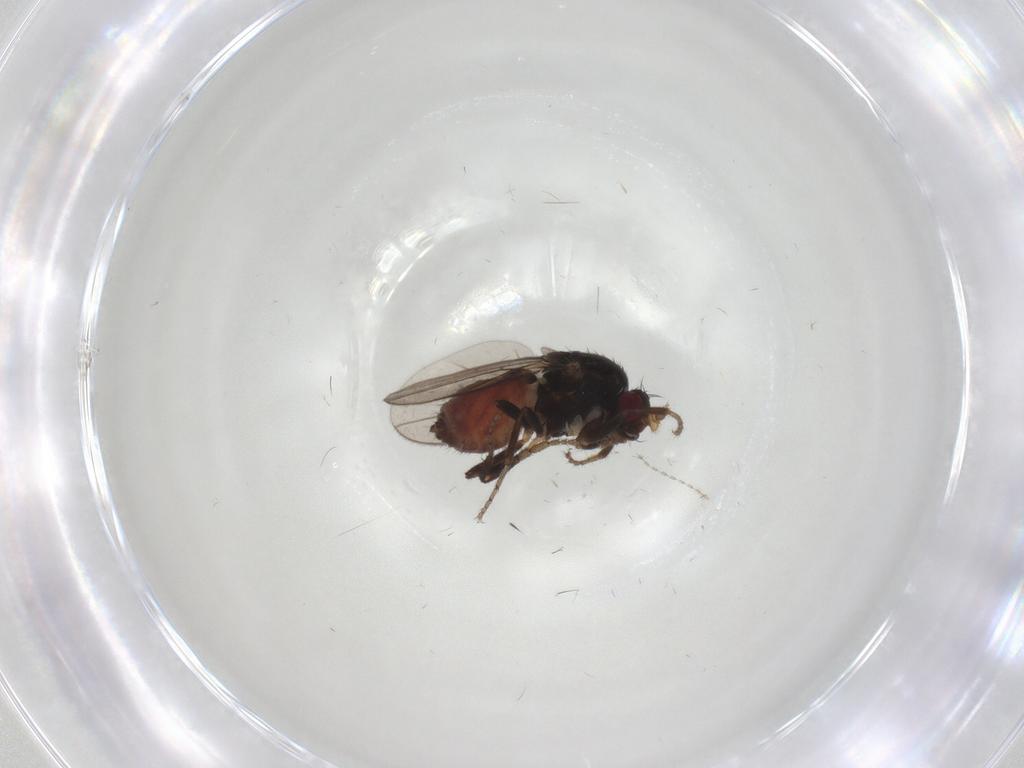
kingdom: Animalia
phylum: Arthropoda
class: Insecta
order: Diptera
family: Sphaeroceridae
